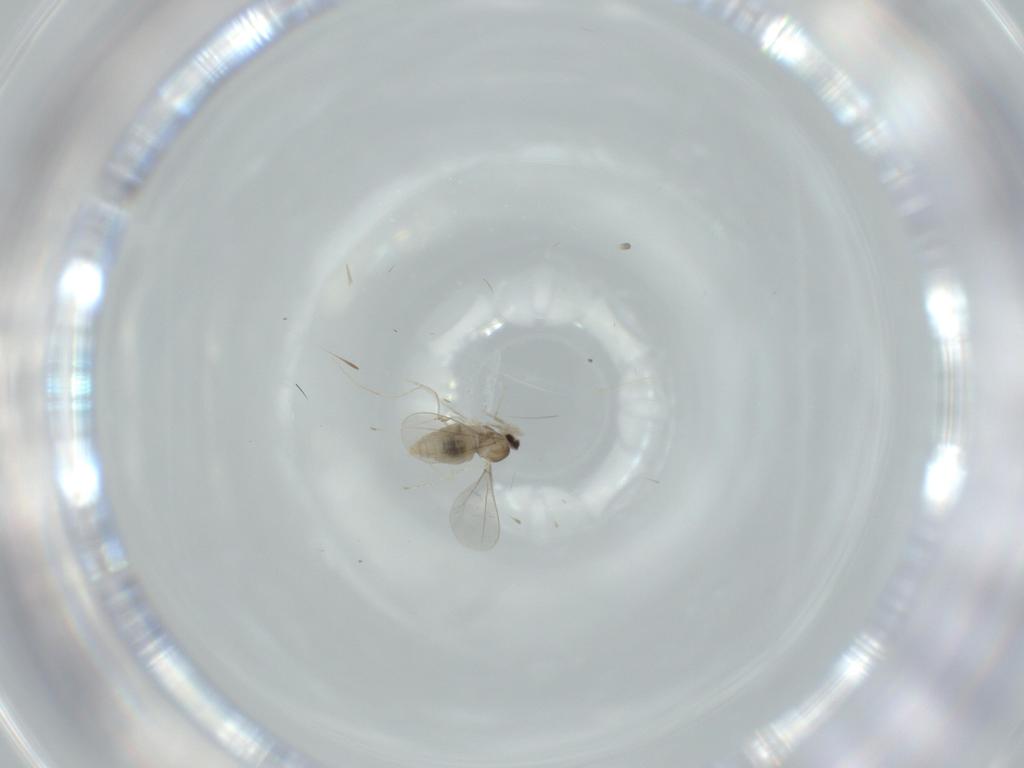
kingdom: Animalia
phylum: Arthropoda
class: Insecta
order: Diptera
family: Cecidomyiidae
